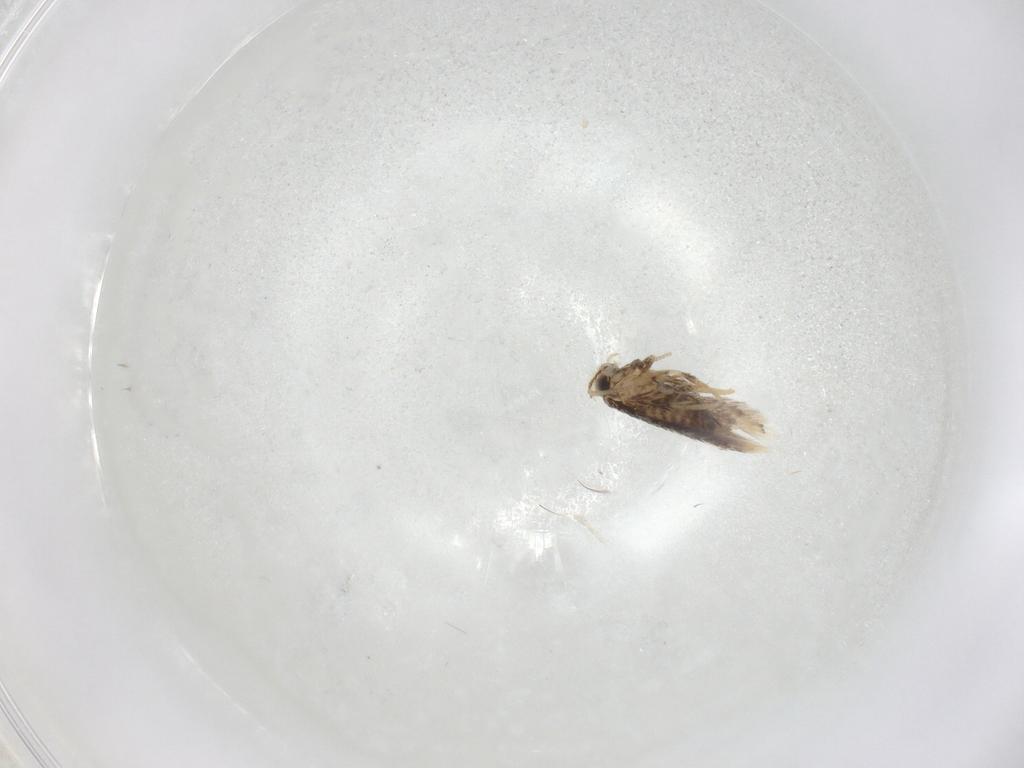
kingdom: Animalia
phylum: Arthropoda
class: Insecta
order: Lepidoptera
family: Nepticulidae
